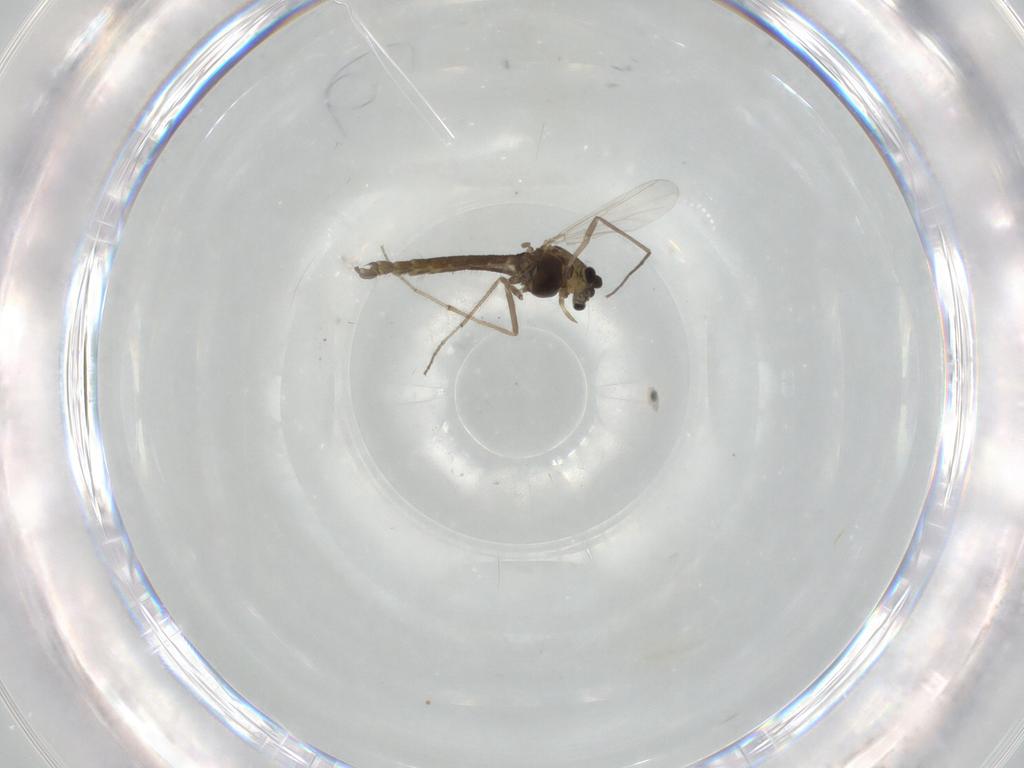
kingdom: Animalia
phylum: Arthropoda
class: Insecta
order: Diptera
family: Chironomidae
